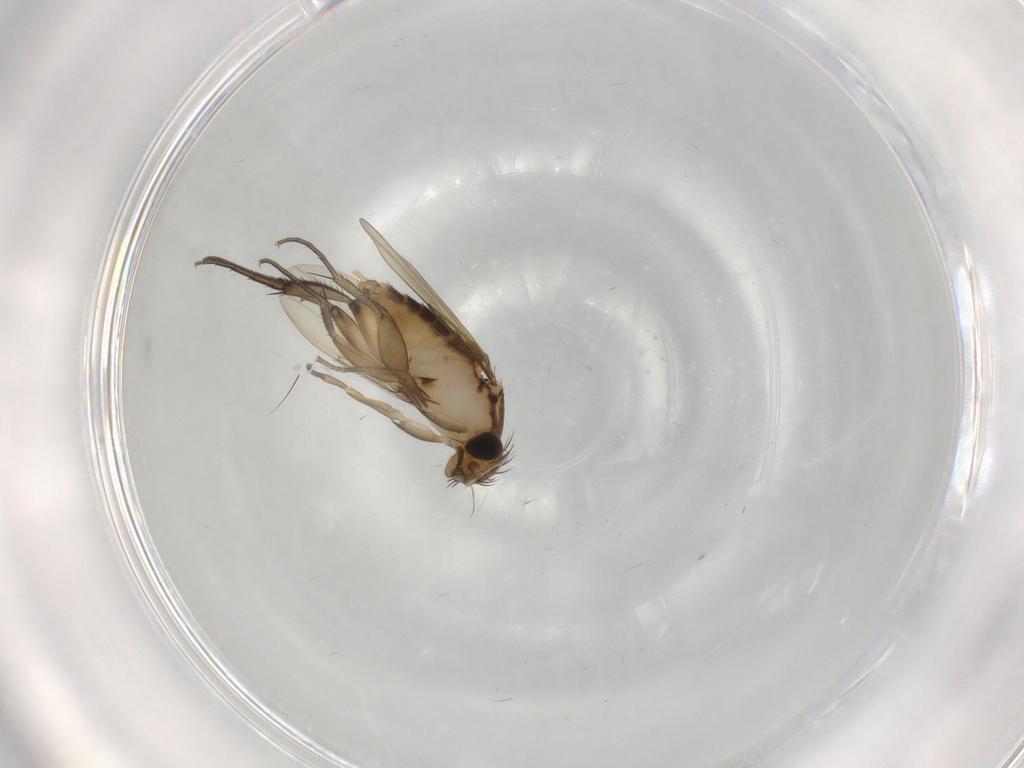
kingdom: Animalia
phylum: Arthropoda
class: Insecta
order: Diptera
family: Phoridae
